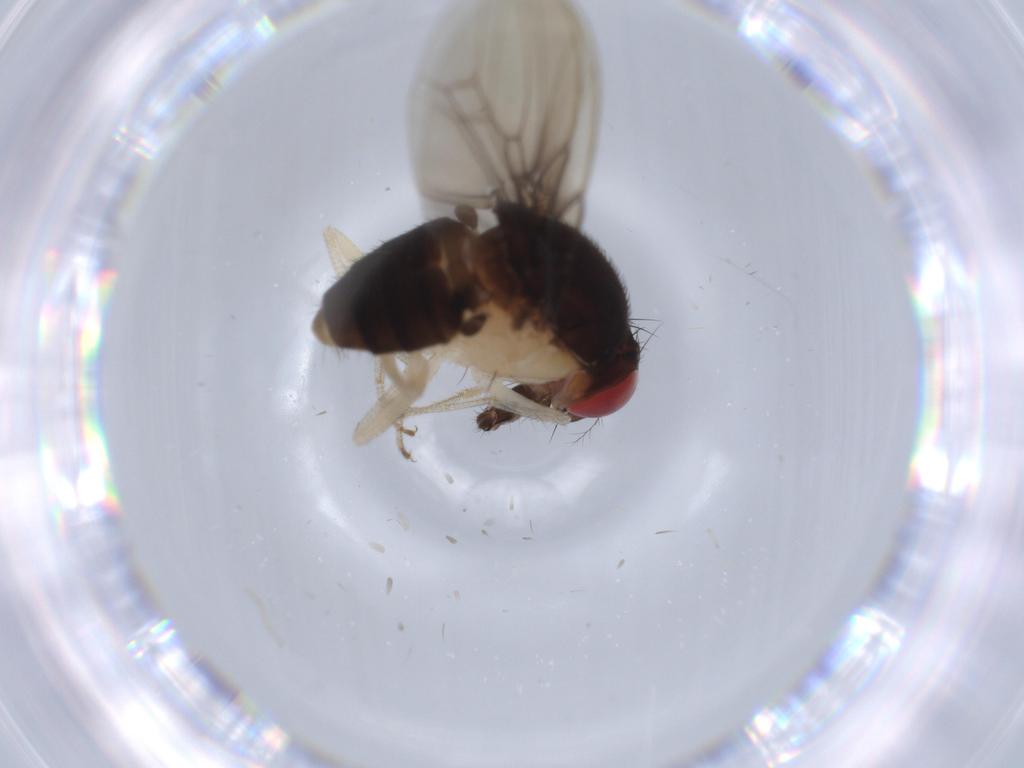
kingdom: Animalia
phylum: Arthropoda
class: Insecta
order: Diptera
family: Drosophilidae
